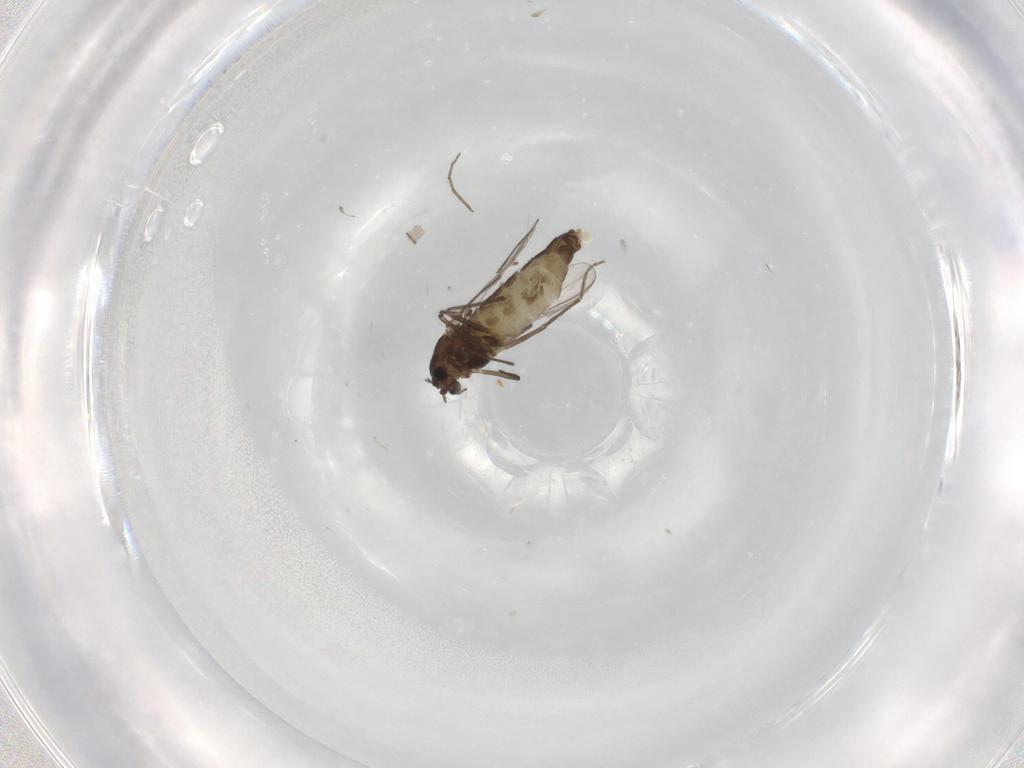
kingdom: Animalia
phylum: Arthropoda
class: Insecta
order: Diptera
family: Chironomidae
